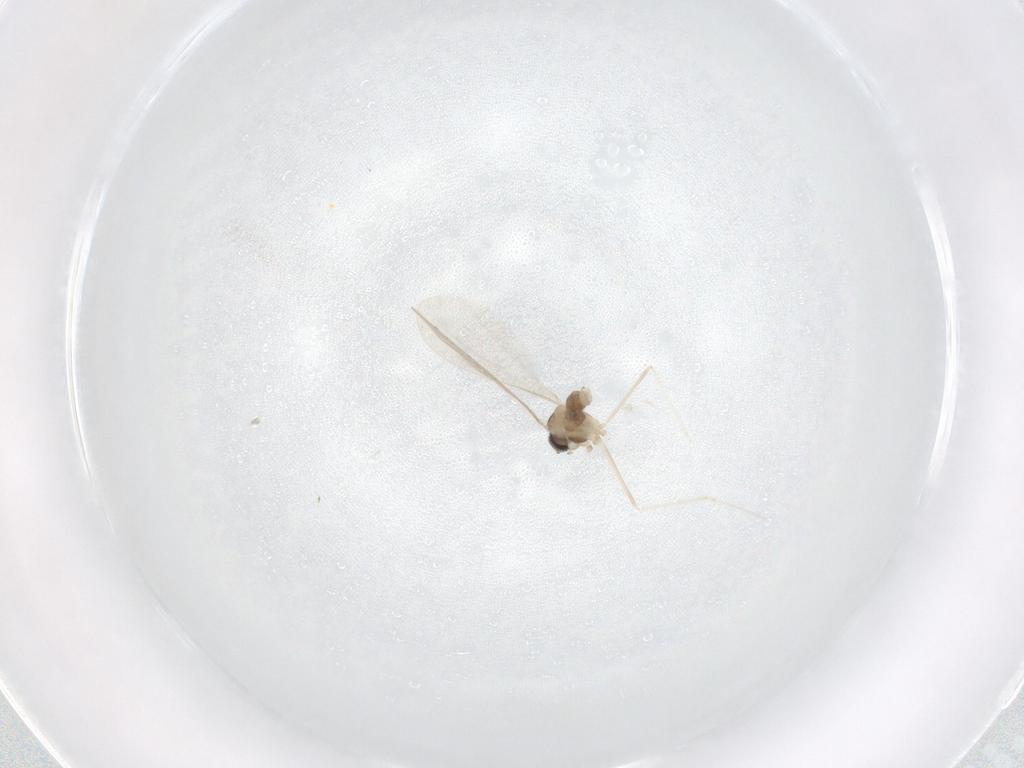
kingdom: Animalia
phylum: Arthropoda
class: Insecta
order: Diptera
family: Cecidomyiidae
